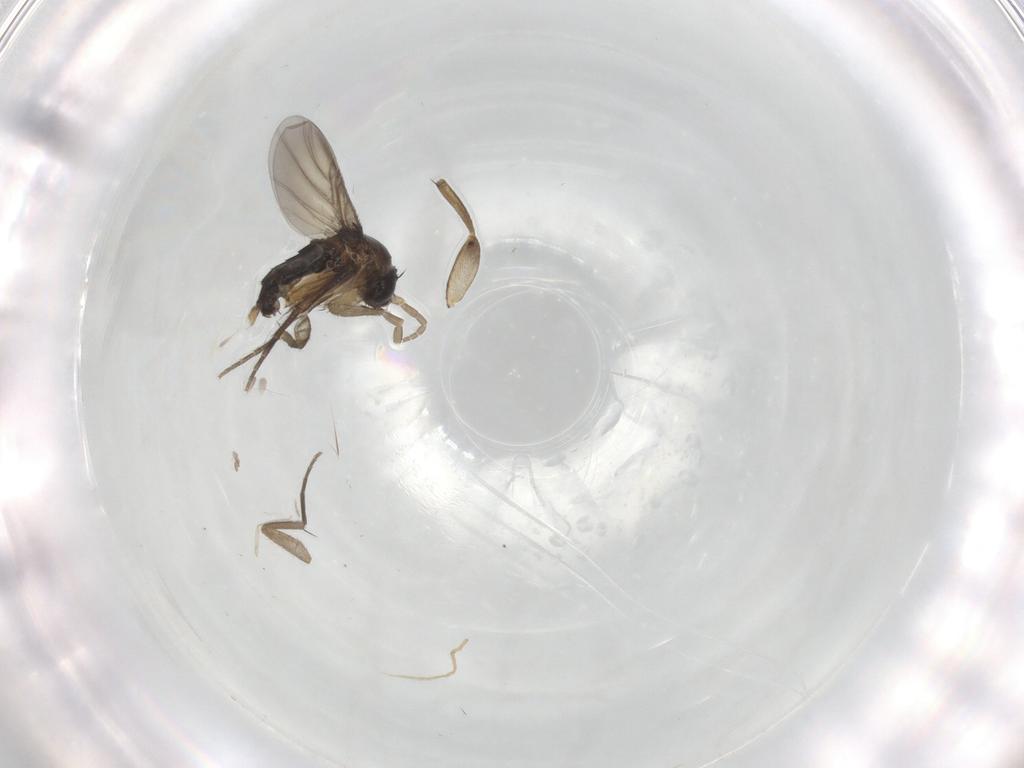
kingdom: Animalia
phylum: Arthropoda
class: Insecta
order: Diptera
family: Phoridae
